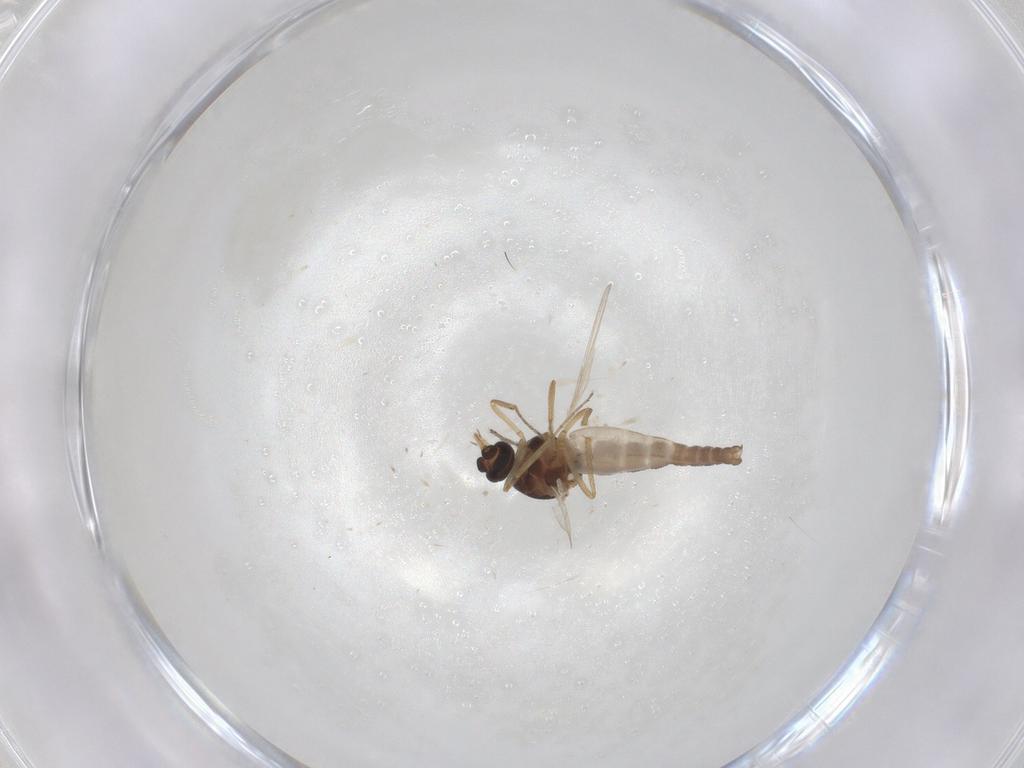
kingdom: Animalia
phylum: Arthropoda
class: Insecta
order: Diptera
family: Ceratopogonidae
